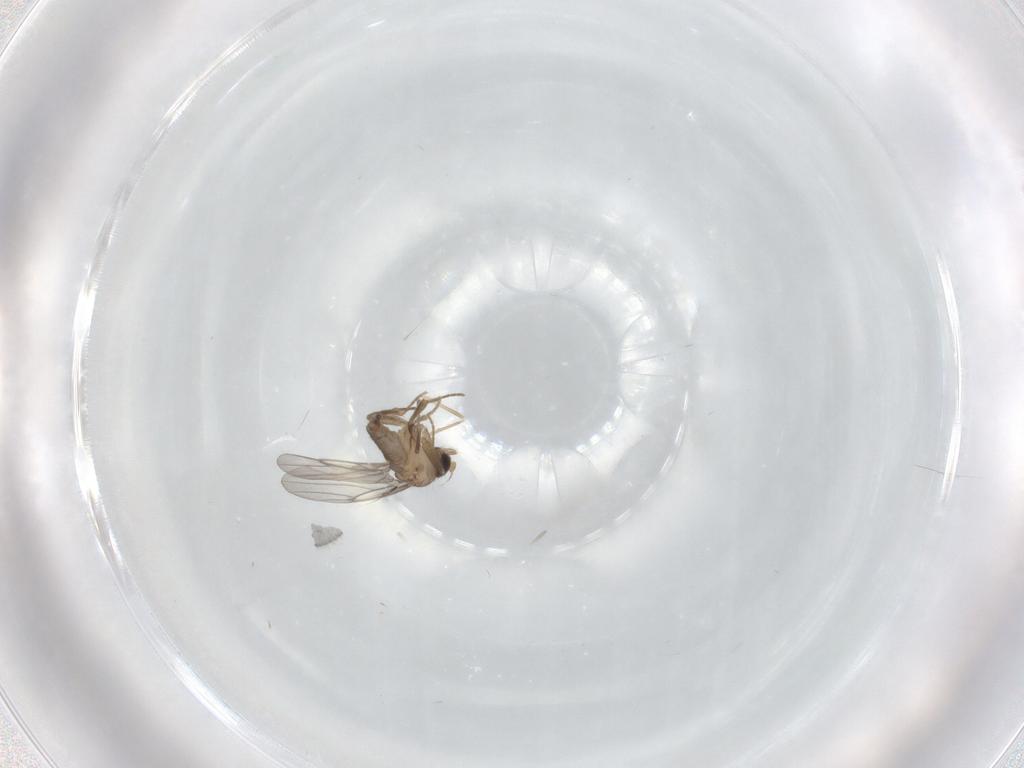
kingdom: Animalia
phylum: Arthropoda
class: Insecta
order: Diptera
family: Cecidomyiidae
